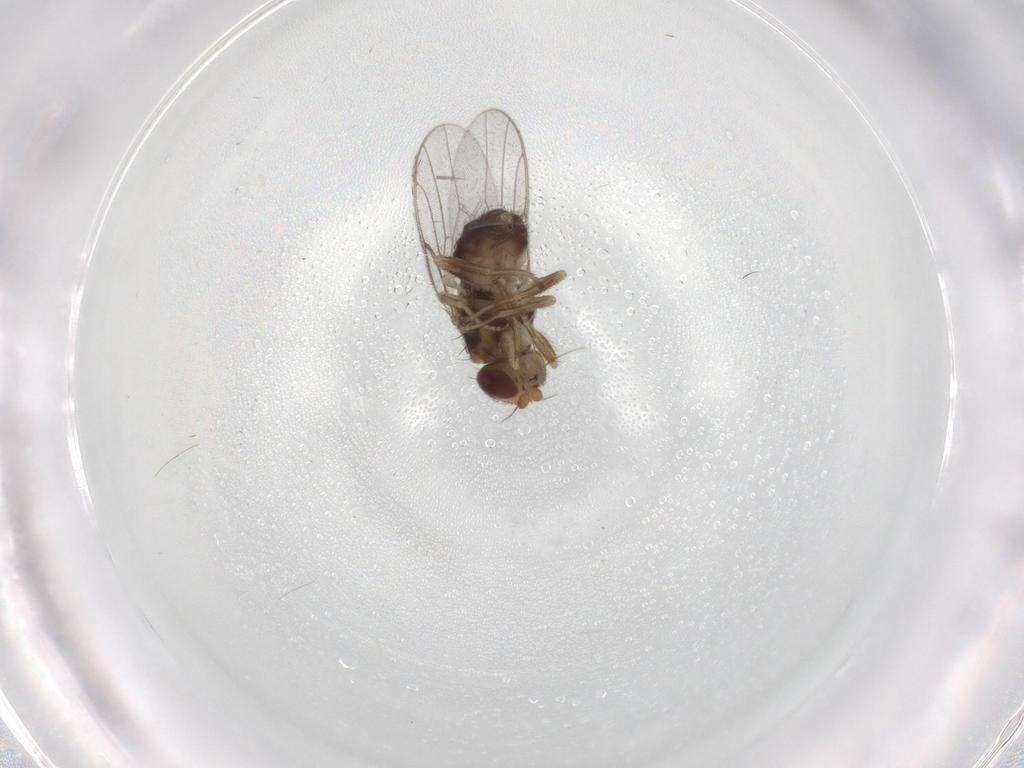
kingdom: Animalia
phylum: Arthropoda
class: Insecta
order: Diptera
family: Chloropidae
